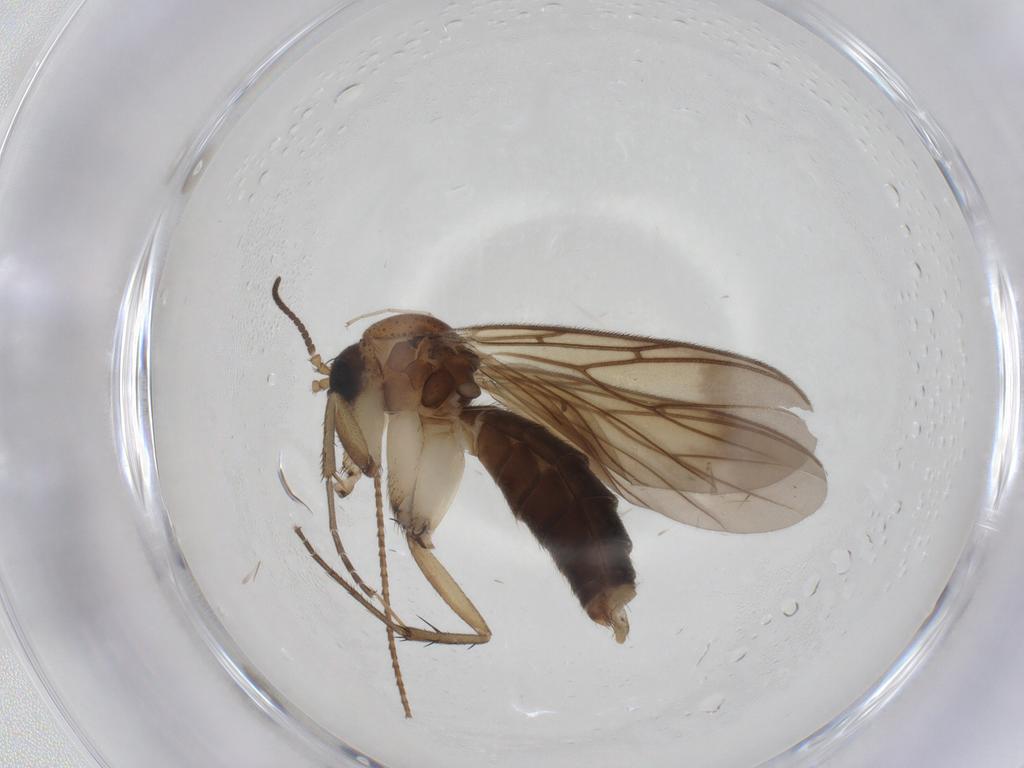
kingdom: Animalia
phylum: Arthropoda
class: Insecta
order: Diptera
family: Mycetophilidae
